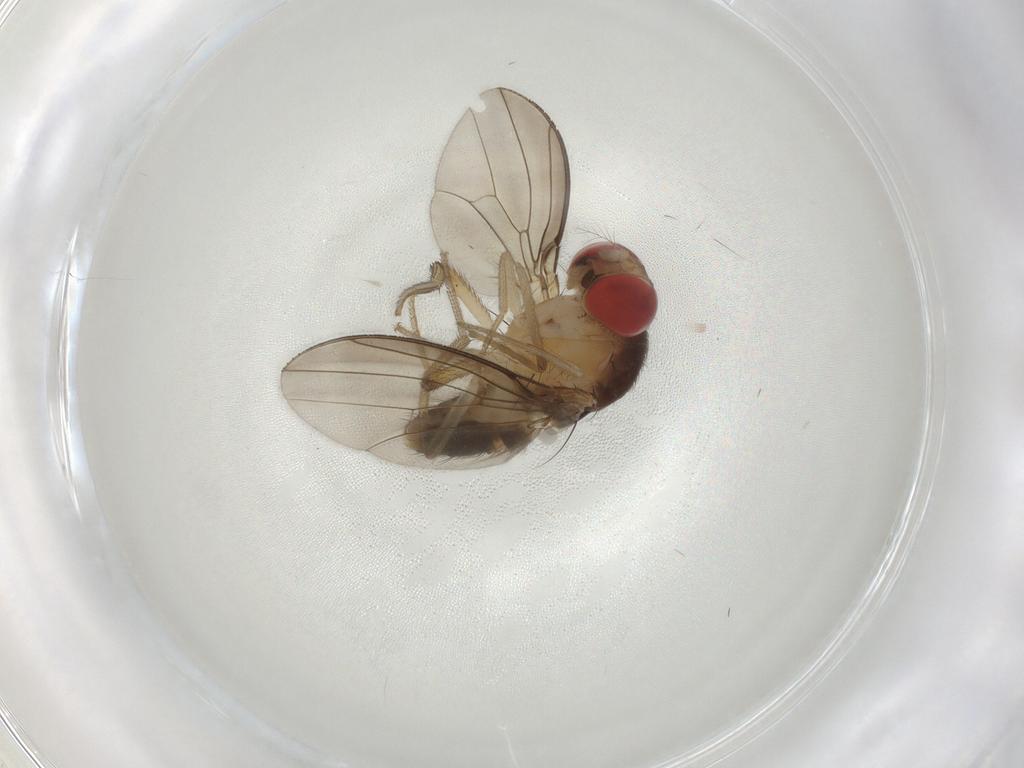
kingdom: Animalia
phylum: Arthropoda
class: Insecta
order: Diptera
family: Drosophilidae
